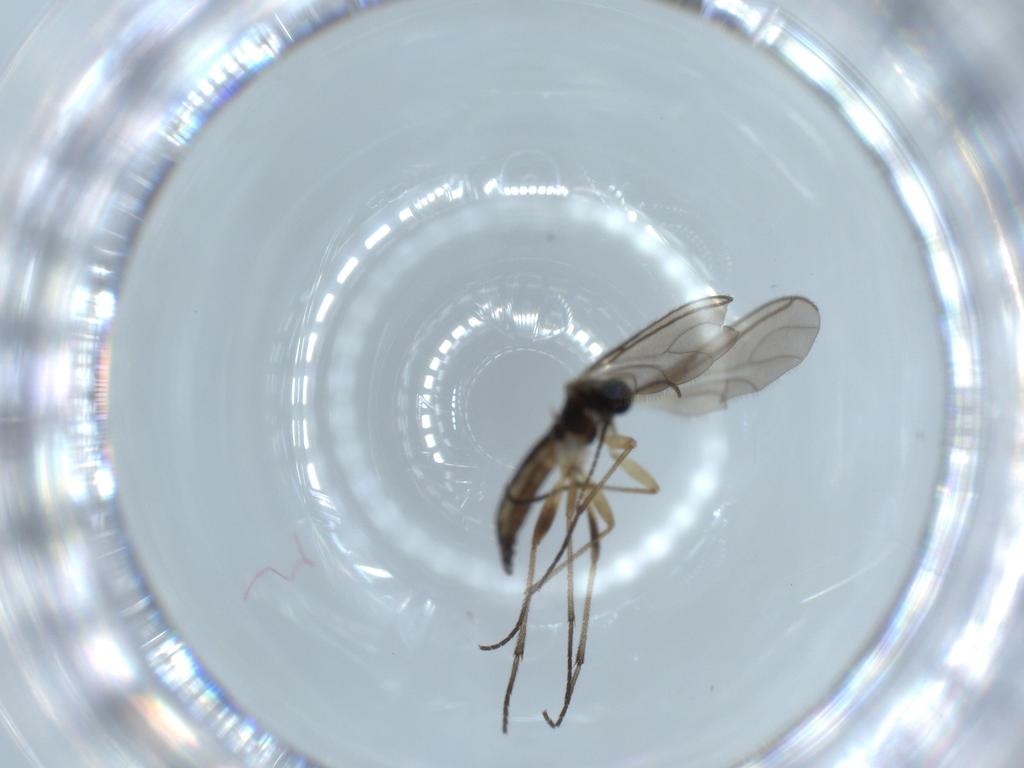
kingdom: Animalia
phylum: Arthropoda
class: Insecta
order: Diptera
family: Sciaridae
